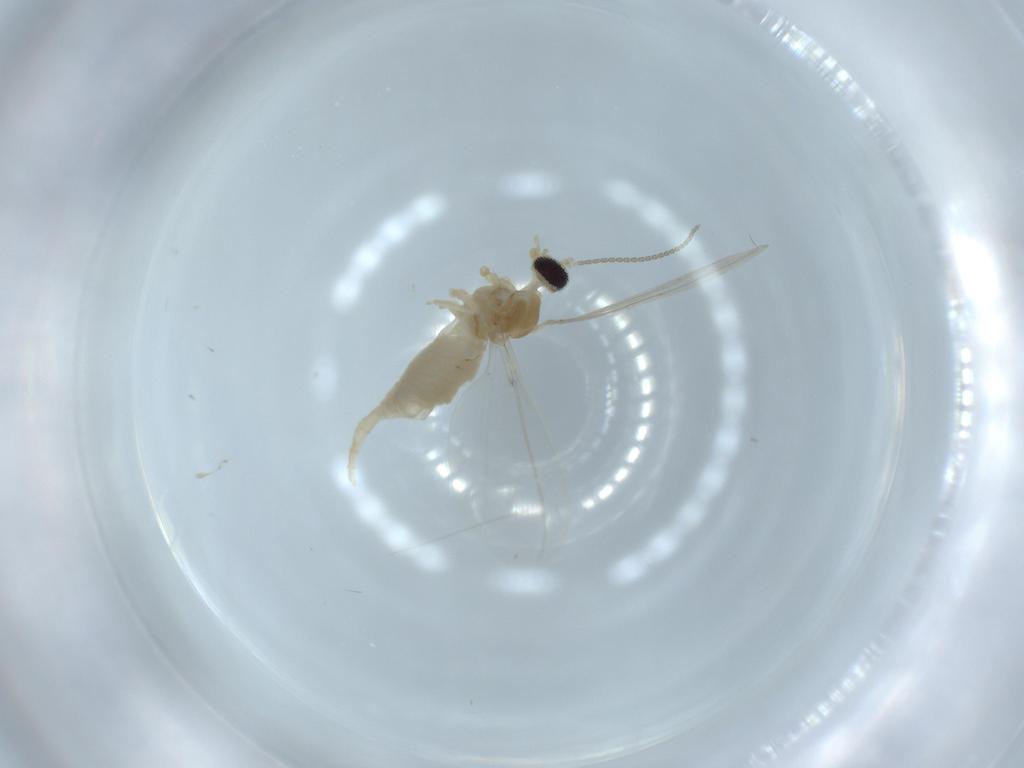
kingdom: Animalia
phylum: Arthropoda
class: Insecta
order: Diptera
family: Cecidomyiidae
